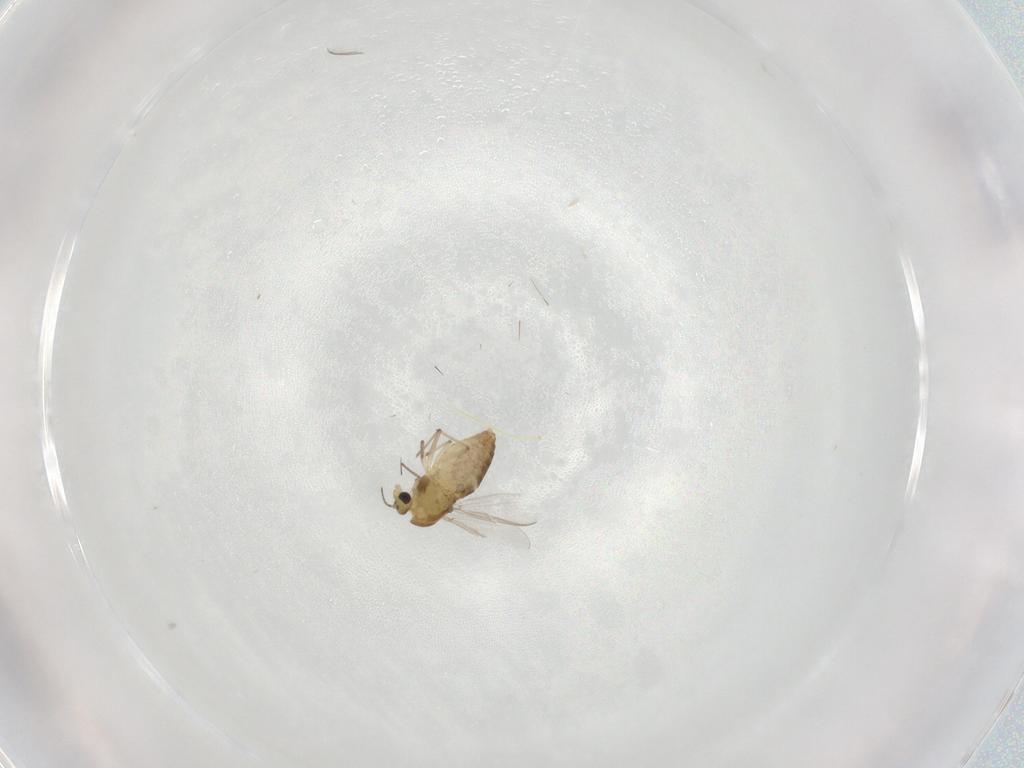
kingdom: Animalia
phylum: Arthropoda
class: Insecta
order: Diptera
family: Chironomidae
